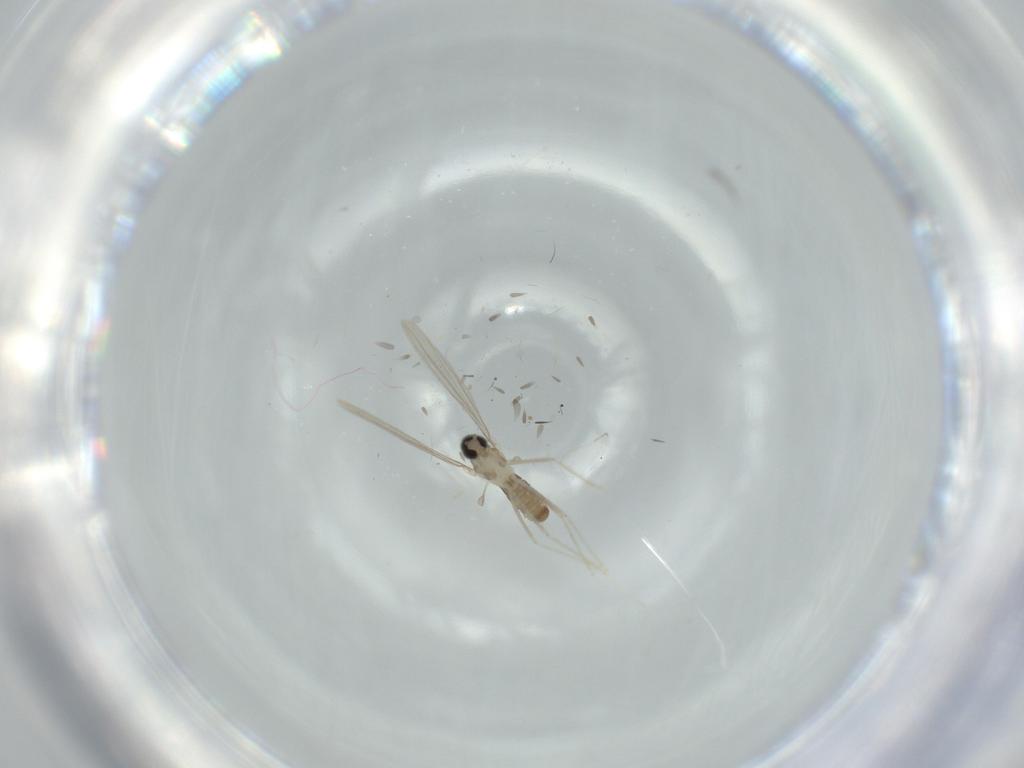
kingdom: Animalia
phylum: Arthropoda
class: Insecta
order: Diptera
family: Chironomidae
